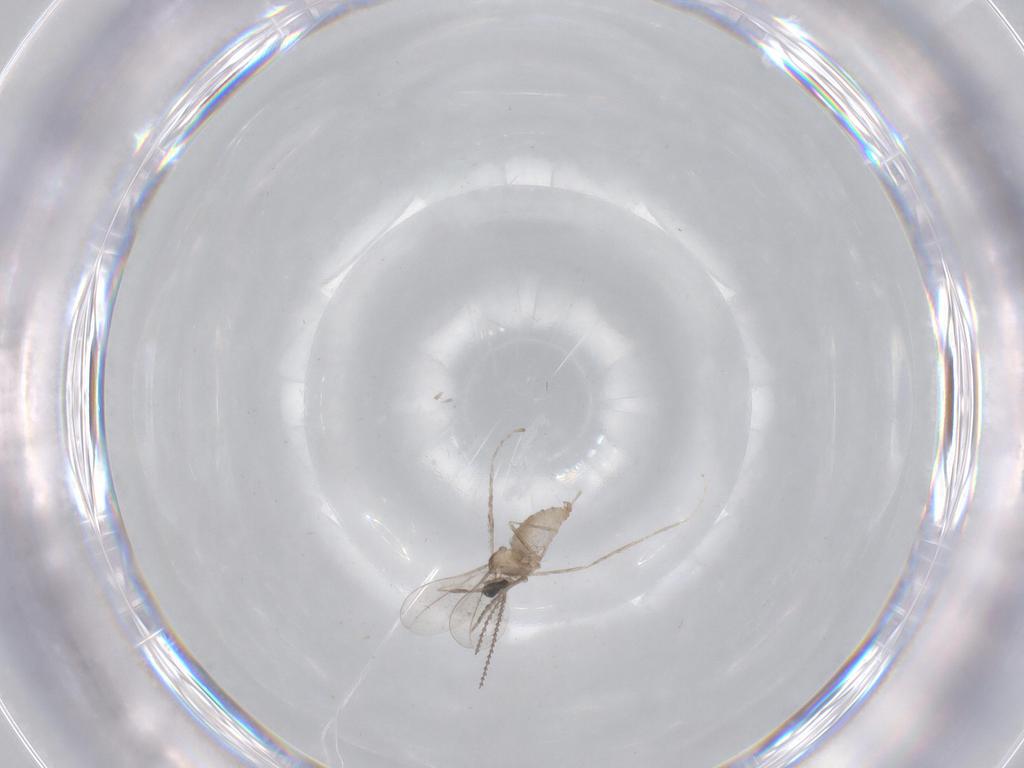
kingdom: Animalia
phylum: Arthropoda
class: Insecta
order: Diptera
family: Cecidomyiidae
